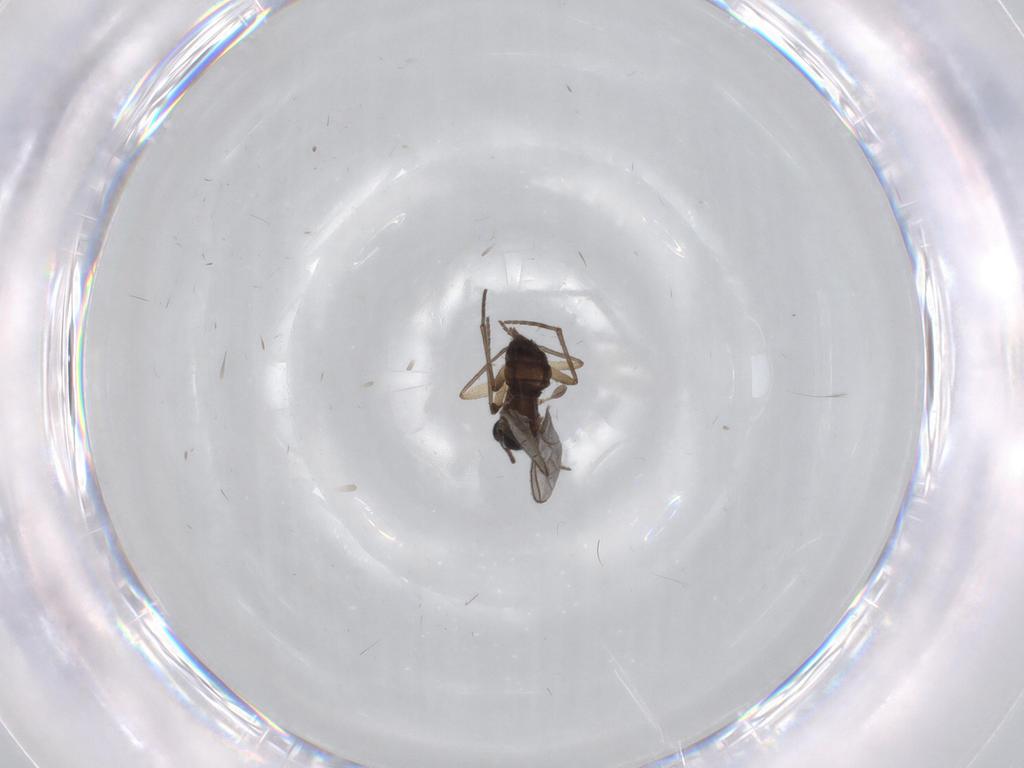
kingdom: Animalia
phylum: Arthropoda
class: Insecta
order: Diptera
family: Sciaridae
